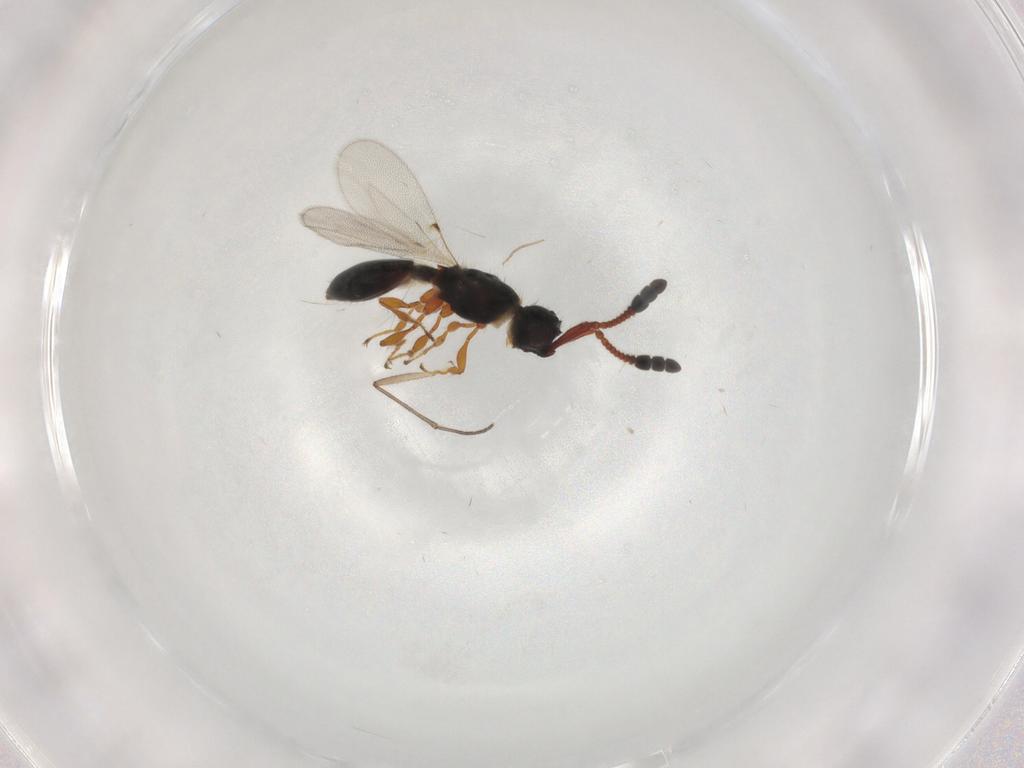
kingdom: Animalia
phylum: Arthropoda
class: Insecta
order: Hymenoptera
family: Diapriidae
